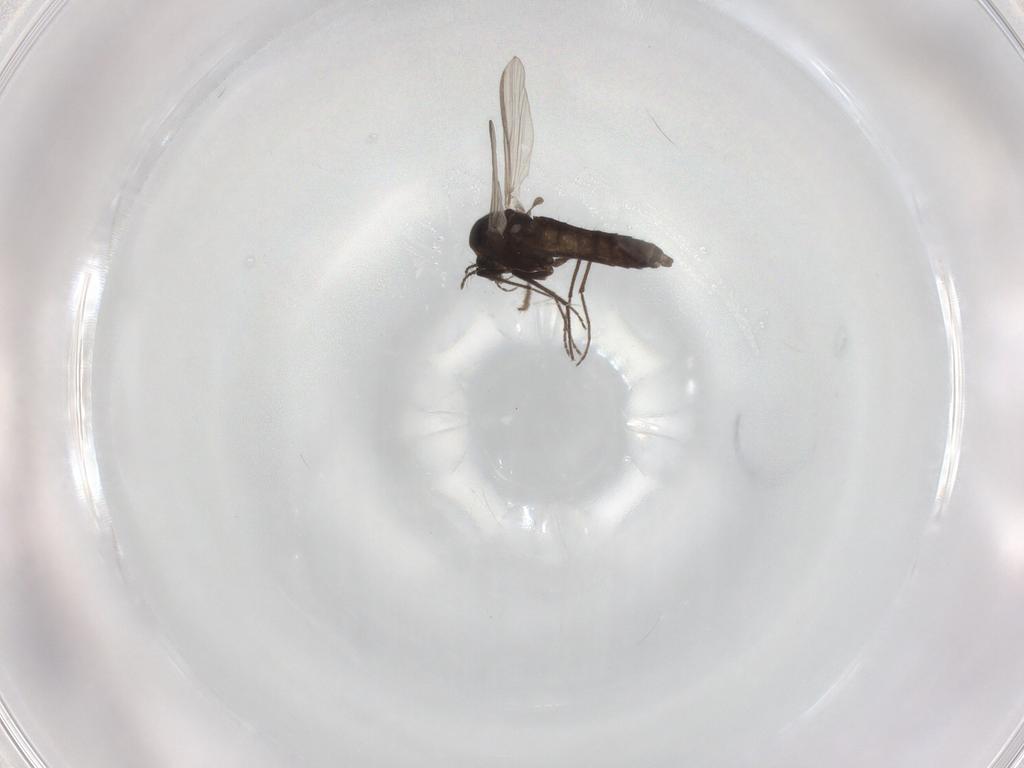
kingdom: Animalia
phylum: Arthropoda
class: Insecta
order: Diptera
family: Chironomidae
